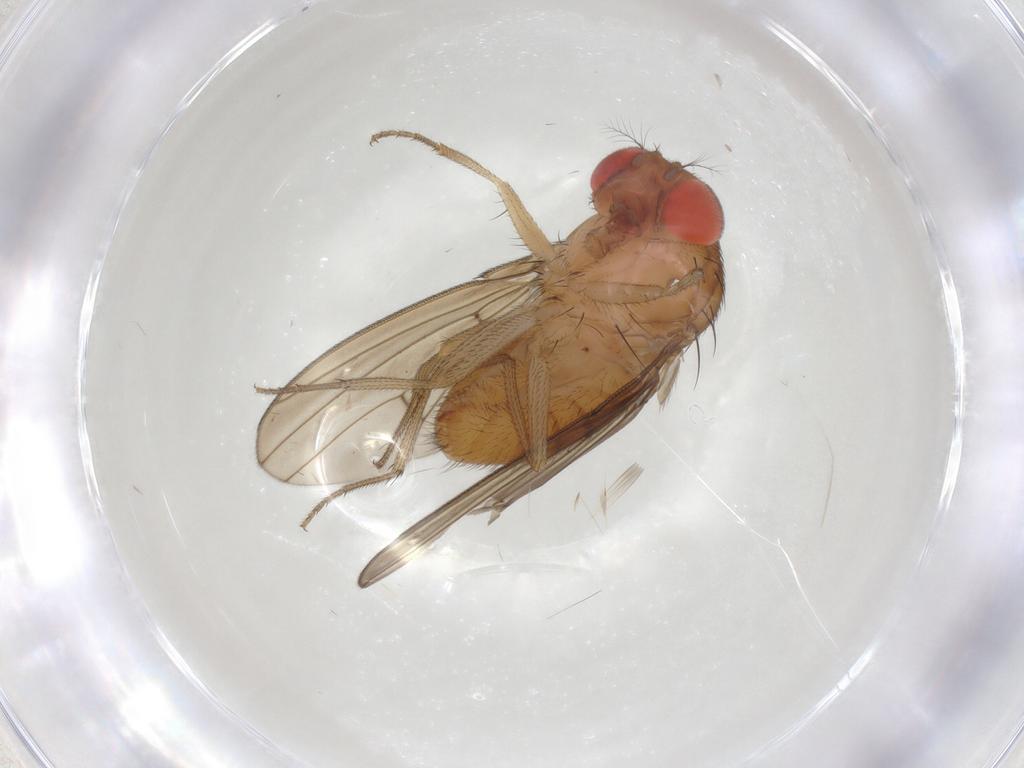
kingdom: Animalia
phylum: Arthropoda
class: Insecta
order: Diptera
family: Drosophilidae
